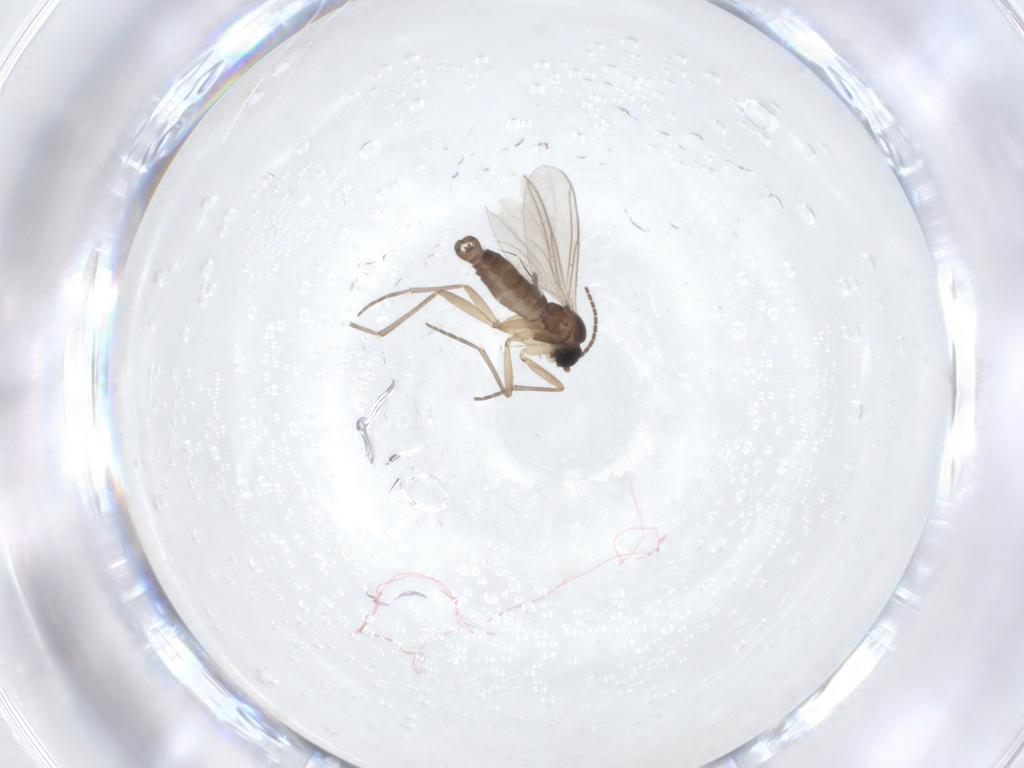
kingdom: Animalia
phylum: Arthropoda
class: Insecta
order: Diptera
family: Sciaridae
